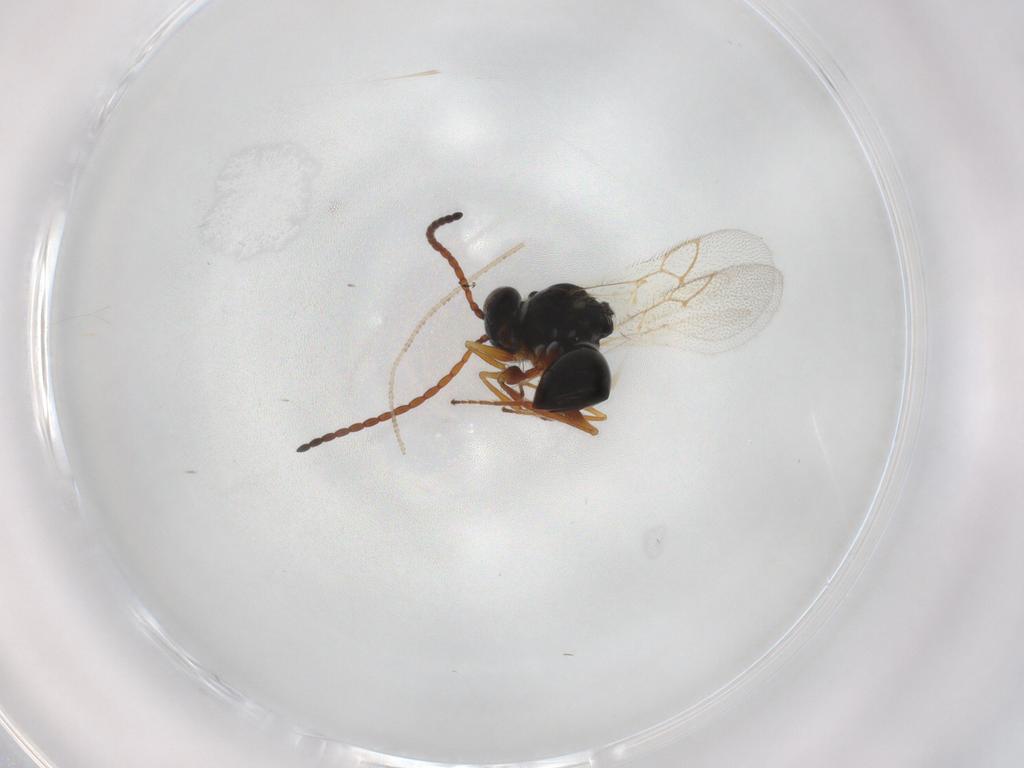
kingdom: Animalia
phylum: Arthropoda
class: Insecta
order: Hymenoptera
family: Figitidae
